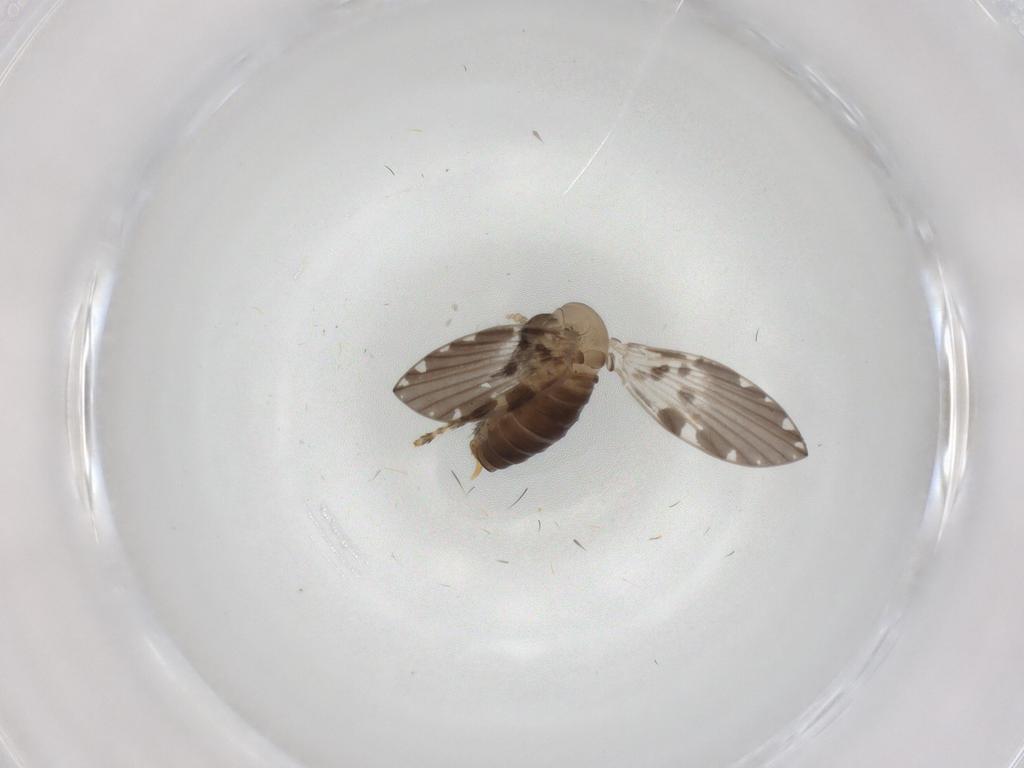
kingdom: Animalia
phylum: Arthropoda
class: Insecta
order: Diptera
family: Psychodidae
